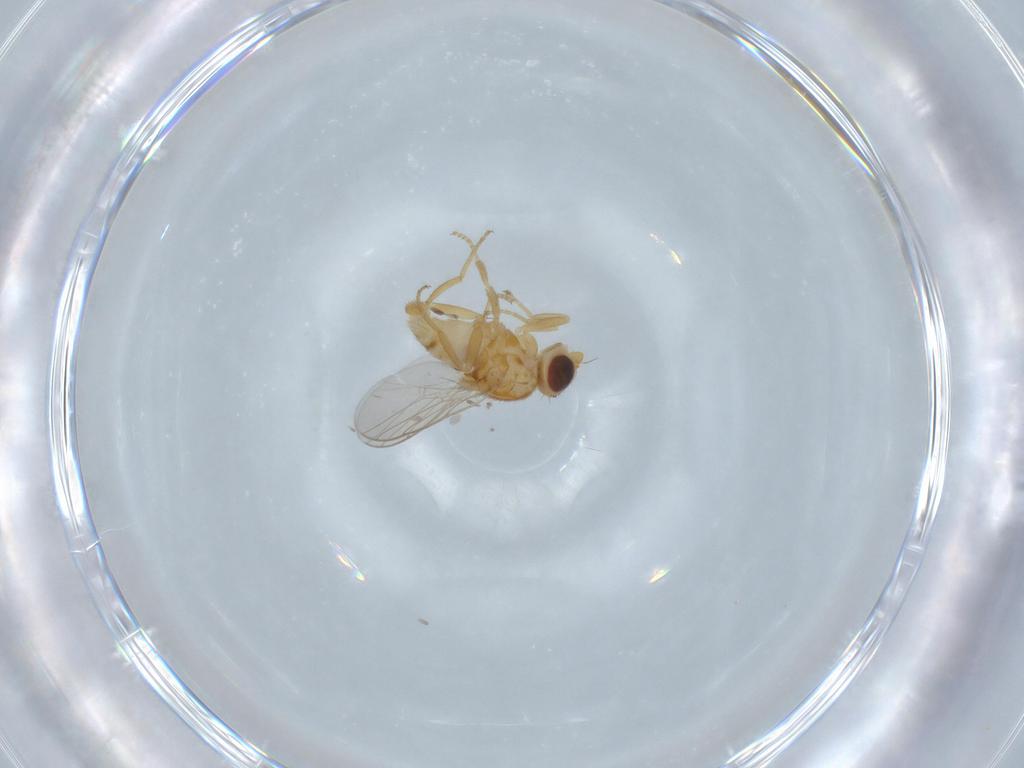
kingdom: Animalia
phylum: Arthropoda
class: Insecta
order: Diptera
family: Chloropidae
